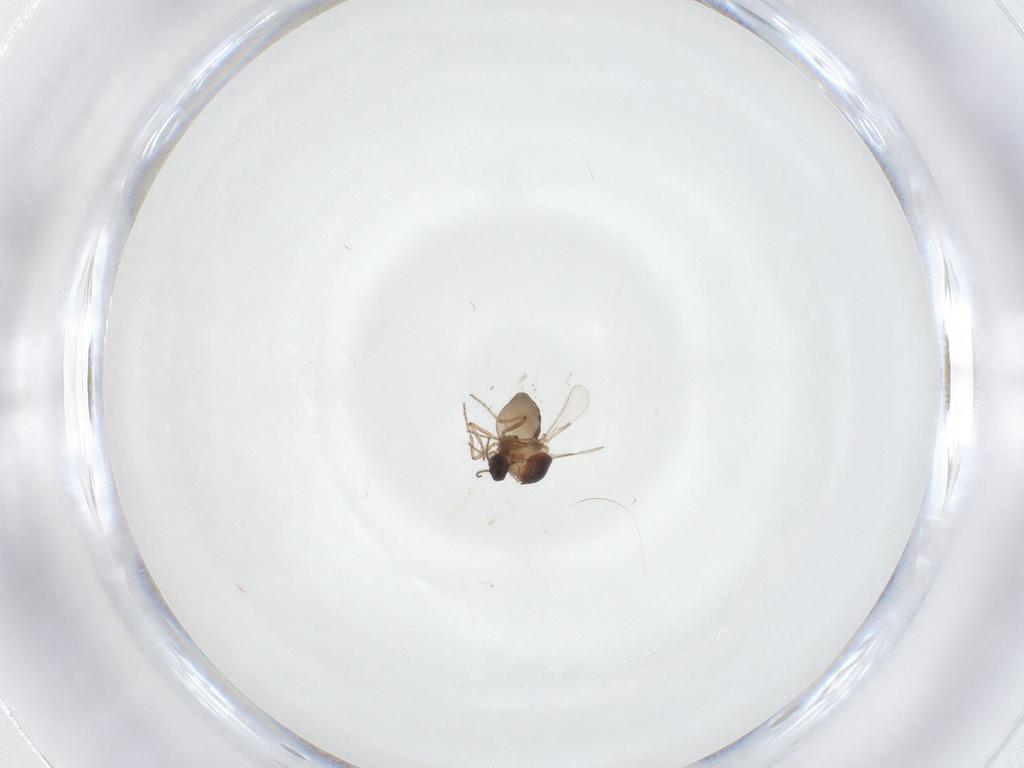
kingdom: Animalia
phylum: Arthropoda
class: Insecta
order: Diptera
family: Ceratopogonidae
